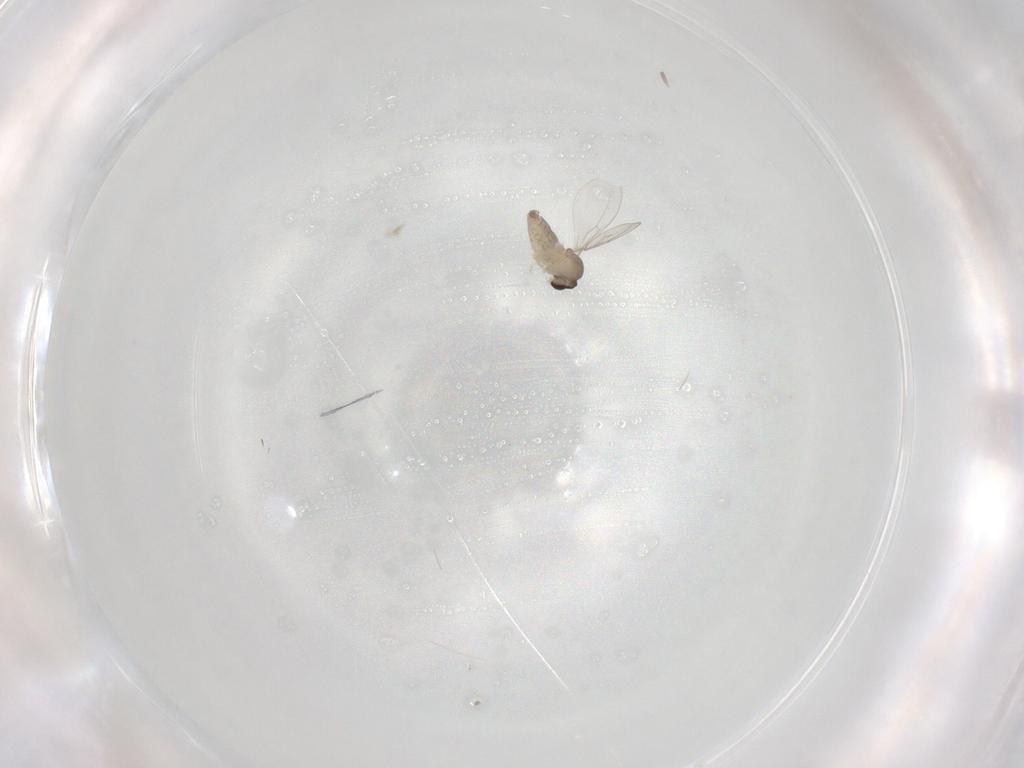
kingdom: Animalia
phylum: Arthropoda
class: Insecta
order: Diptera
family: Cecidomyiidae
